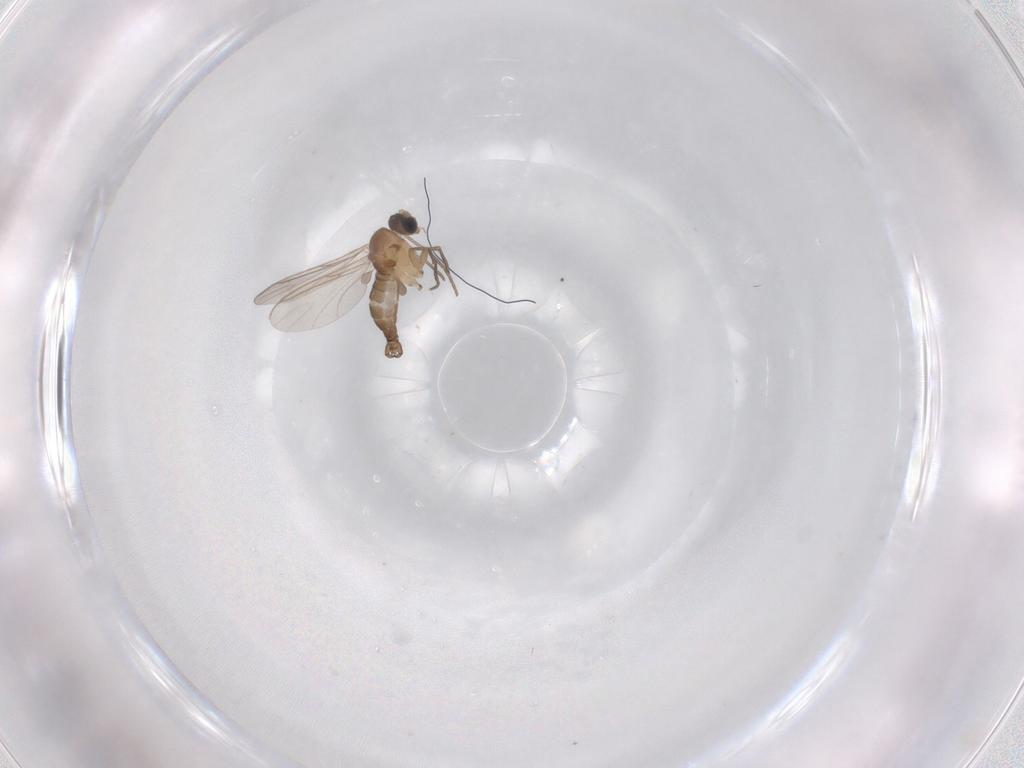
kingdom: Animalia
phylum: Arthropoda
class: Insecta
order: Diptera
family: Sciaridae
